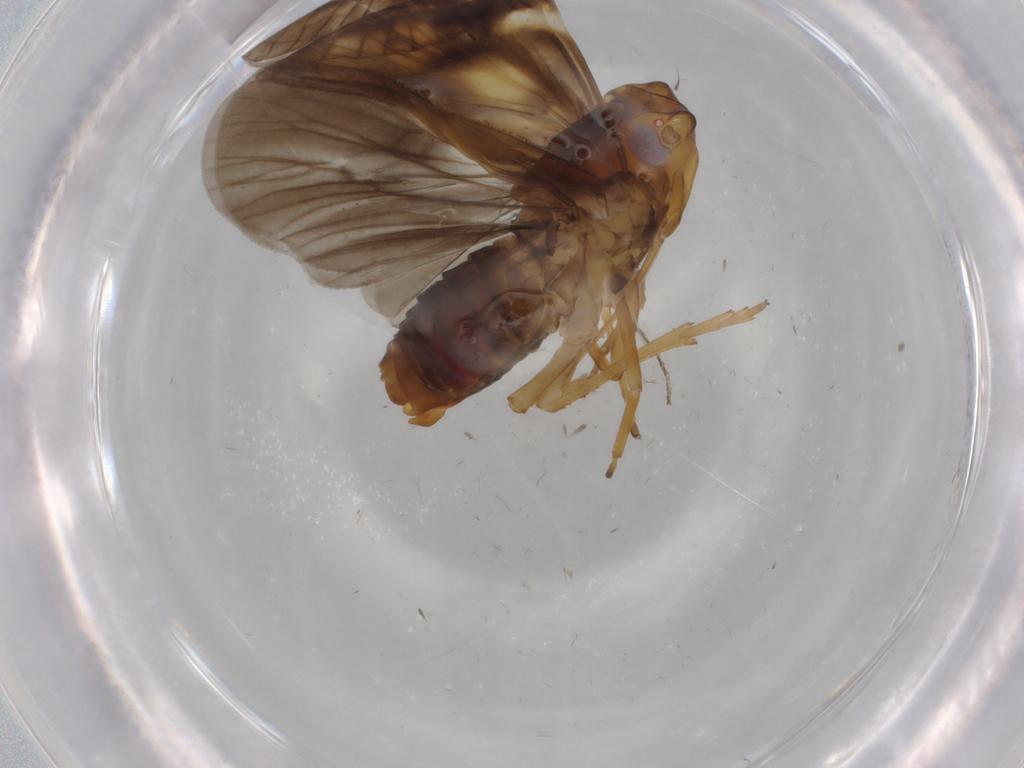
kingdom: Animalia
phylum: Arthropoda
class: Insecta
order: Hemiptera
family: Cixiidae
